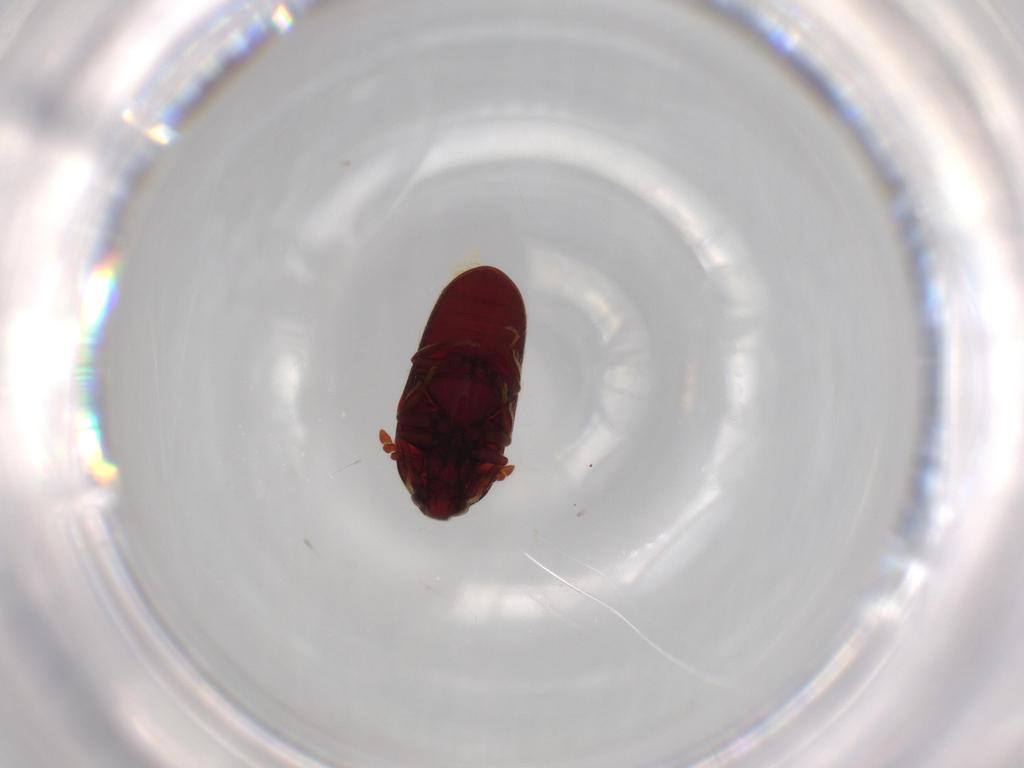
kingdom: Animalia
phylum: Arthropoda
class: Insecta
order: Coleoptera
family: Throscidae
